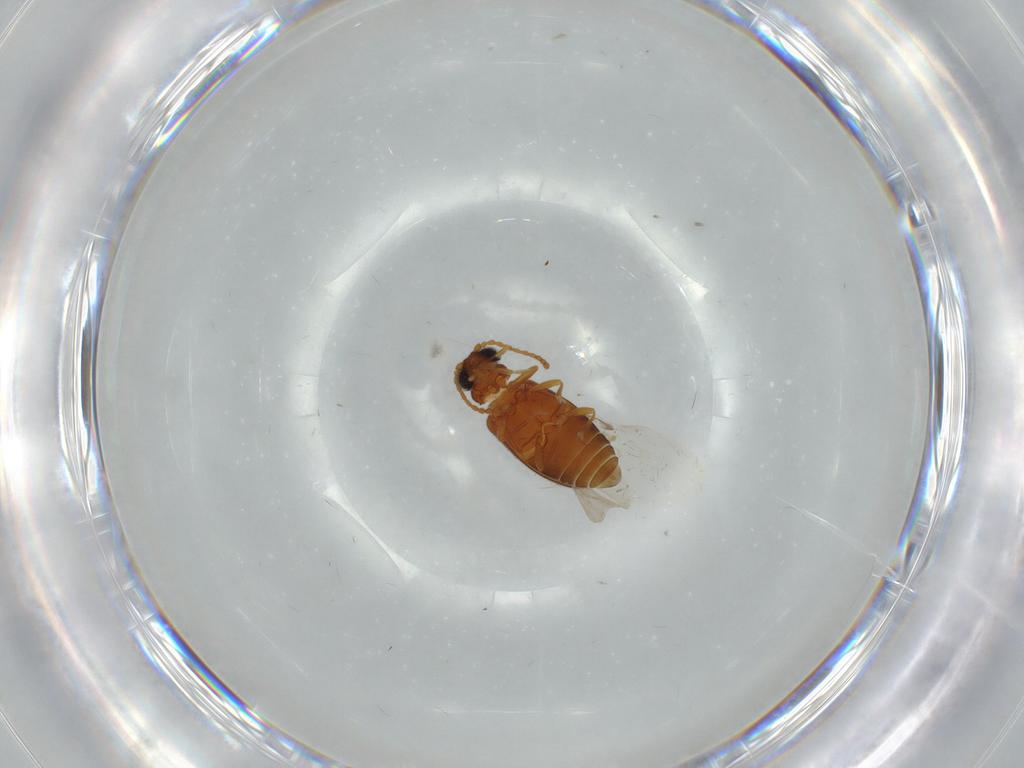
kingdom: Animalia
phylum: Arthropoda
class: Insecta
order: Coleoptera
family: Aderidae
